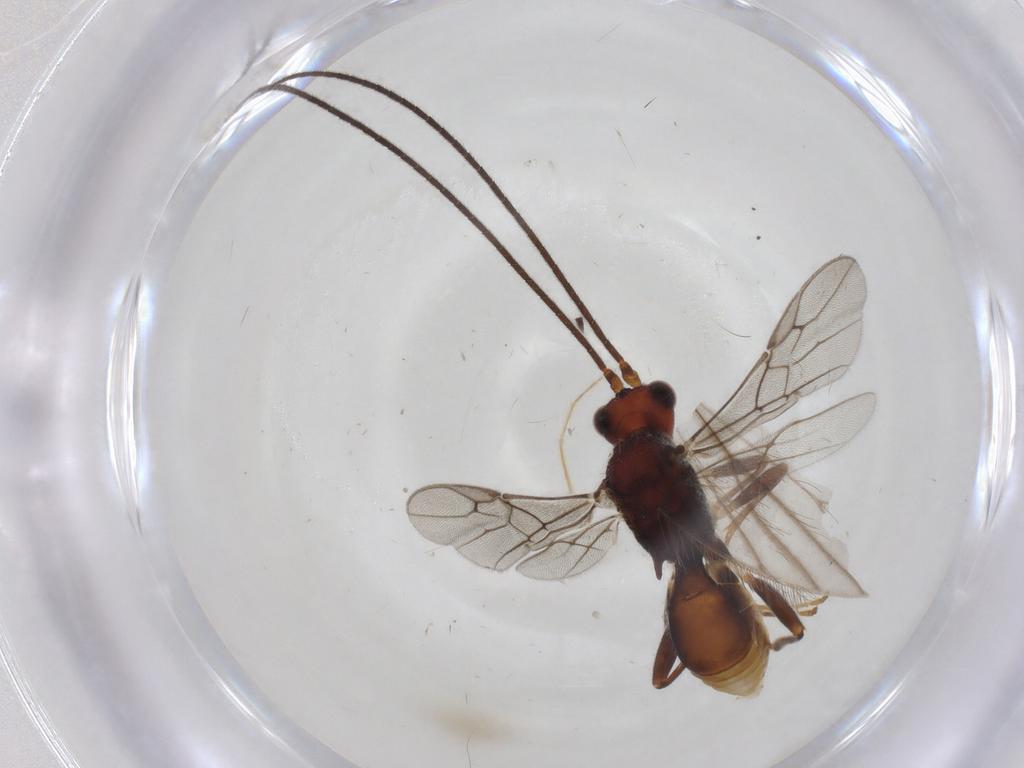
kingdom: Animalia
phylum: Arthropoda
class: Insecta
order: Hymenoptera
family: Braconidae
